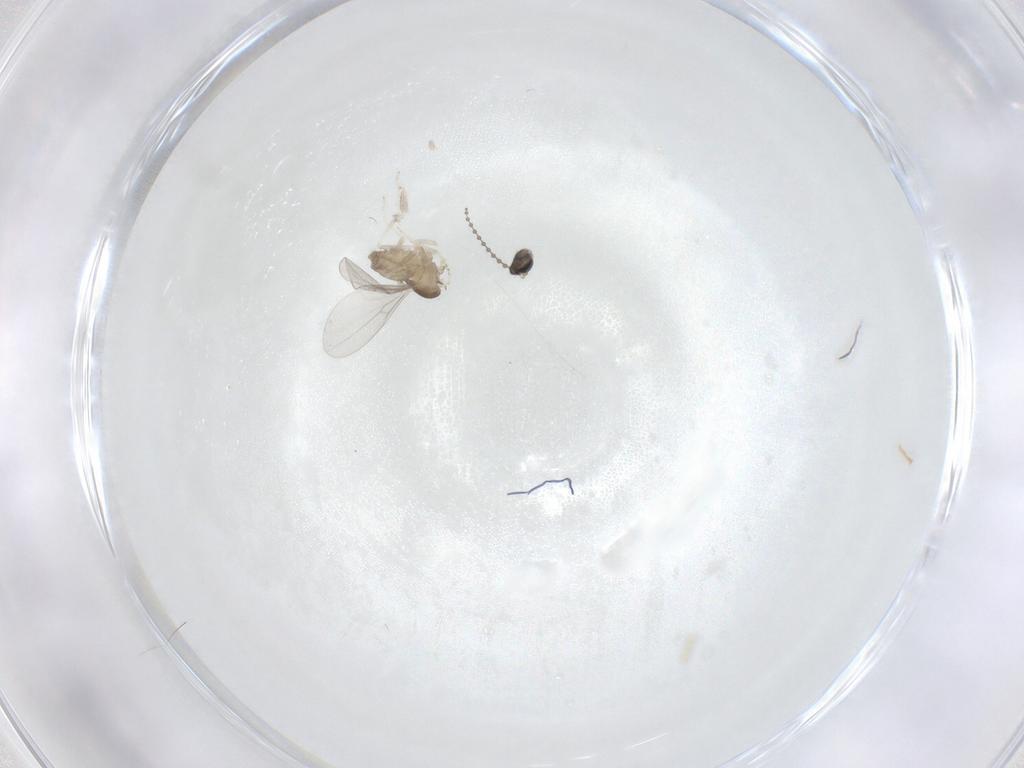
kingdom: Animalia
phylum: Arthropoda
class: Insecta
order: Diptera
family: Cecidomyiidae
